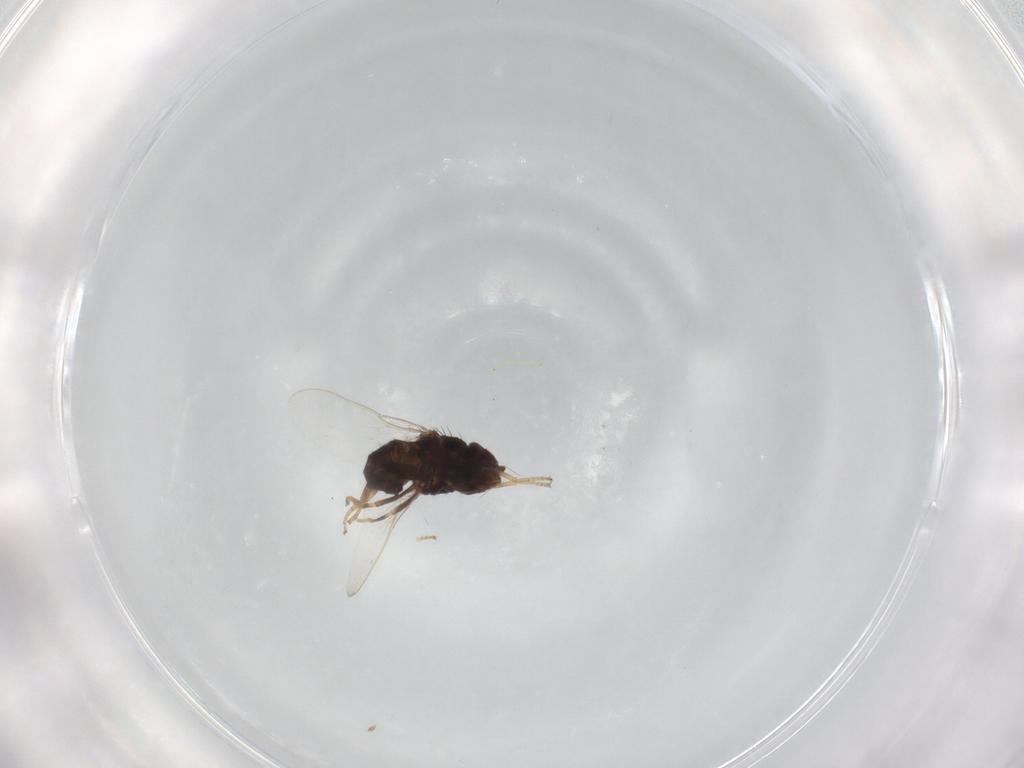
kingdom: Animalia
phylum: Arthropoda
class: Insecta
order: Diptera
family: Chloropidae
